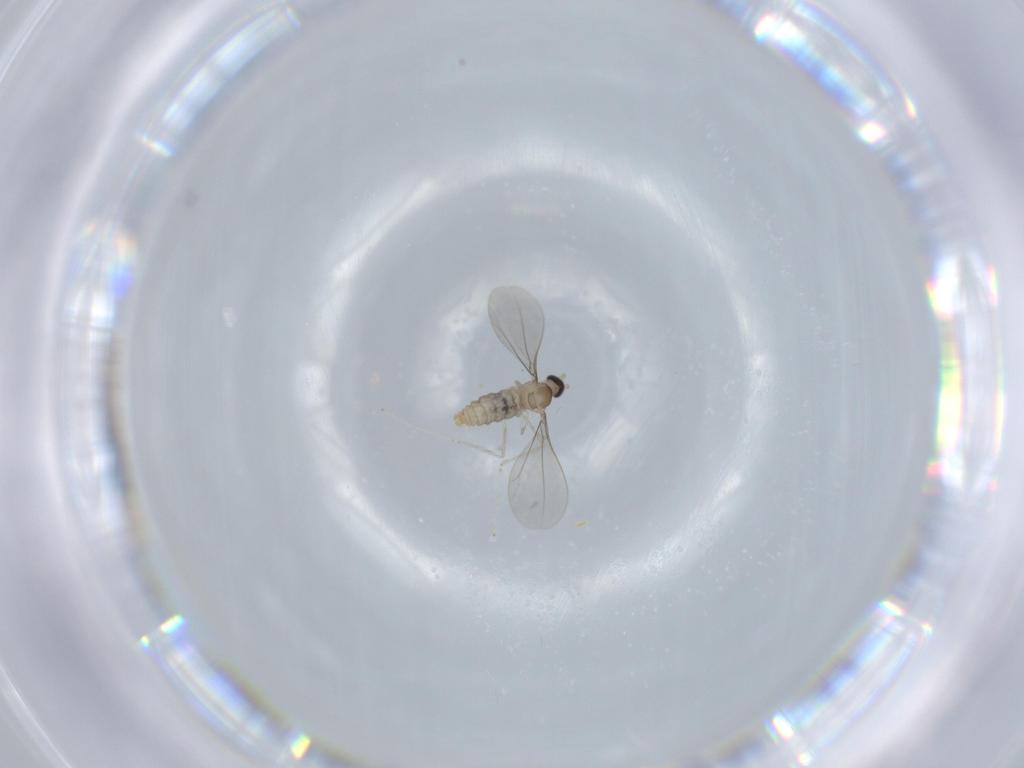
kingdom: Animalia
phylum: Arthropoda
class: Insecta
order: Diptera
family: Cecidomyiidae
